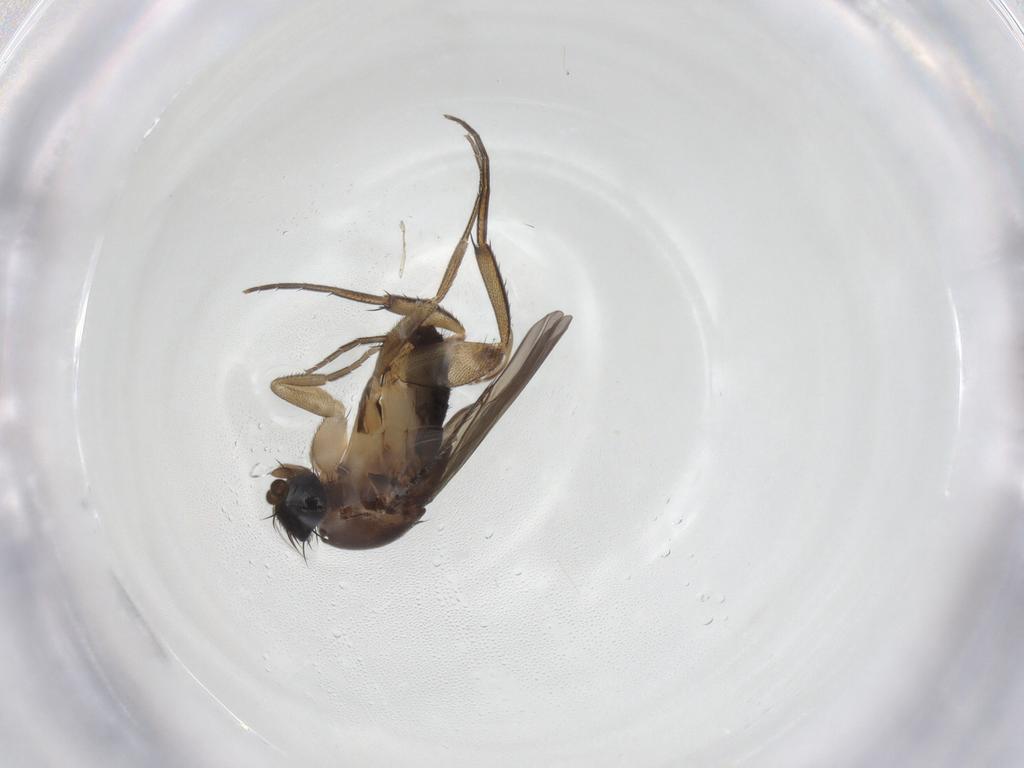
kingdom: Animalia
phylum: Arthropoda
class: Insecta
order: Diptera
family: Phoridae
